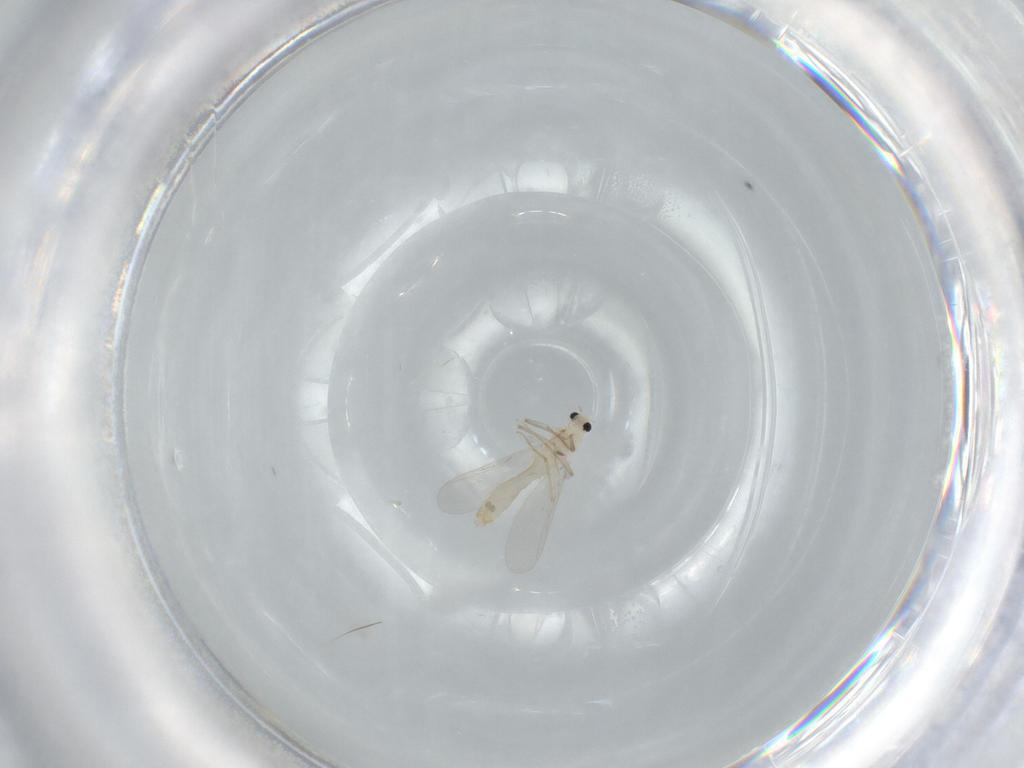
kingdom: Animalia
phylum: Arthropoda
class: Insecta
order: Diptera
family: Chironomidae
